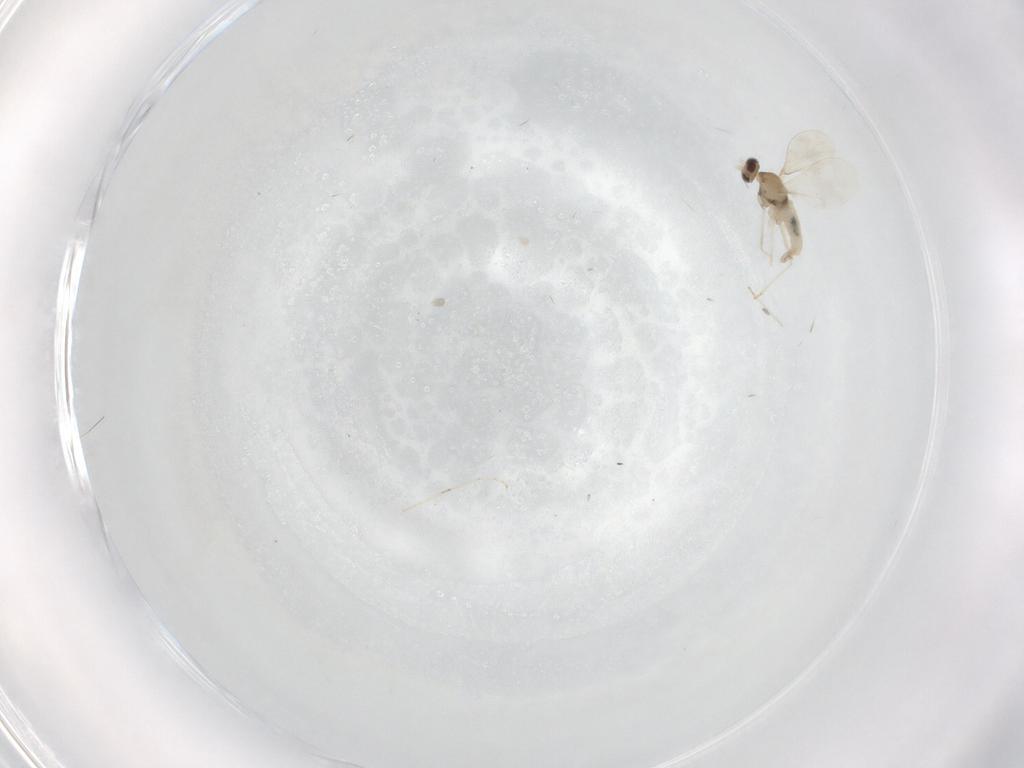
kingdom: Animalia
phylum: Arthropoda
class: Insecta
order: Diptera
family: Cecidomyiidae
